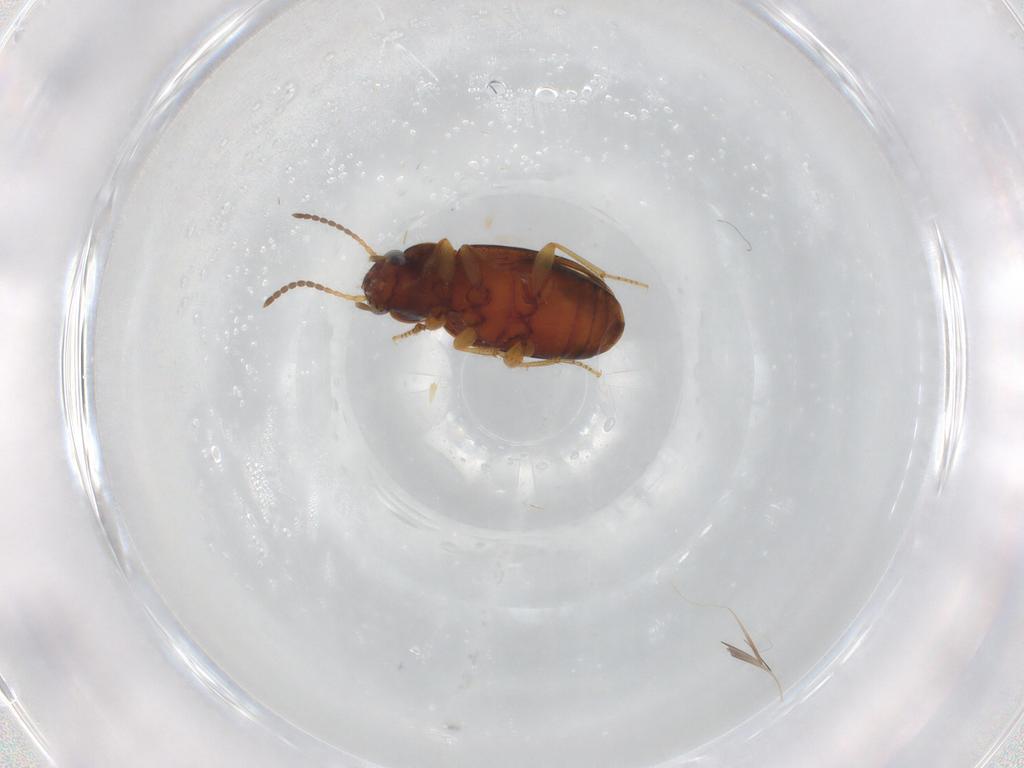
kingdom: Animalia
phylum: Arthropoda
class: Insecta
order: Coleoptera
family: Carabidae
